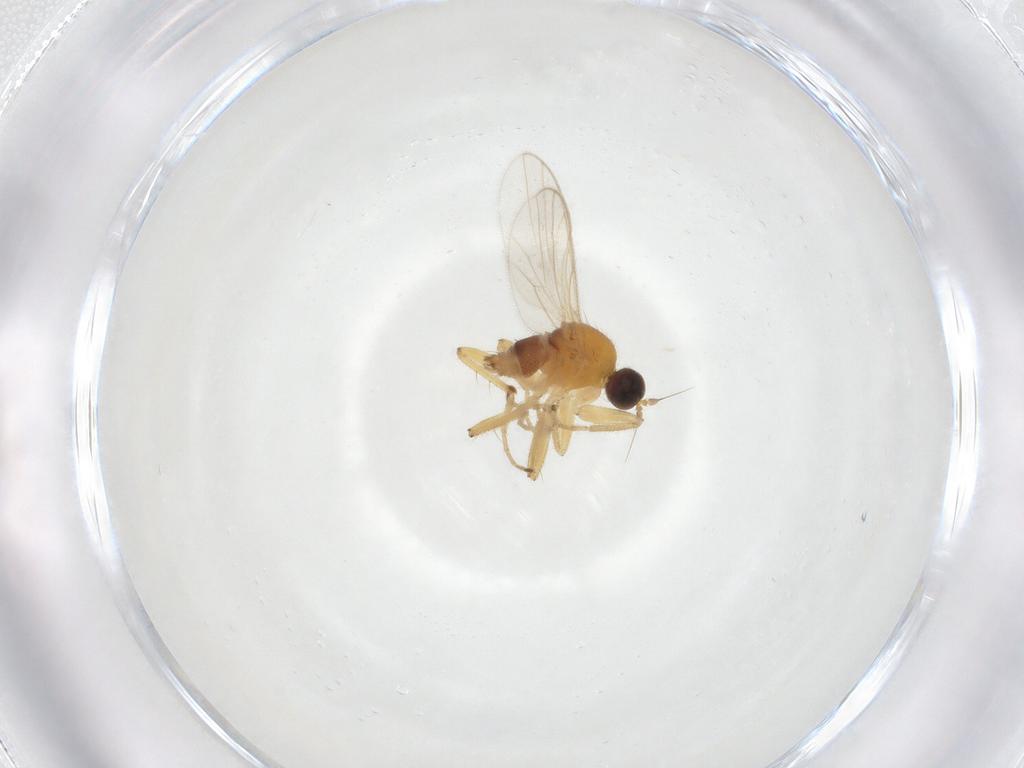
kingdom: Animalia
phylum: Arthropoda
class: Insecta
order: Diptera
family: Hybotidae
